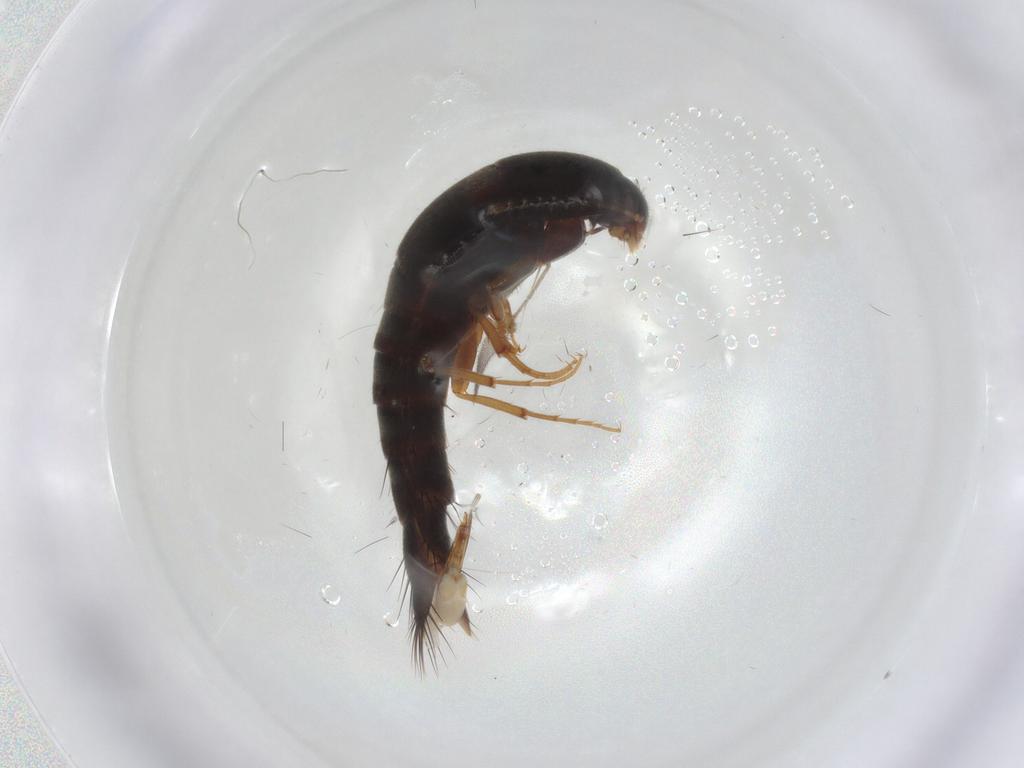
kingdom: Animalia
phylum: Arthropoda
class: Insecta
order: Coleoptera
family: Staphylinidae
